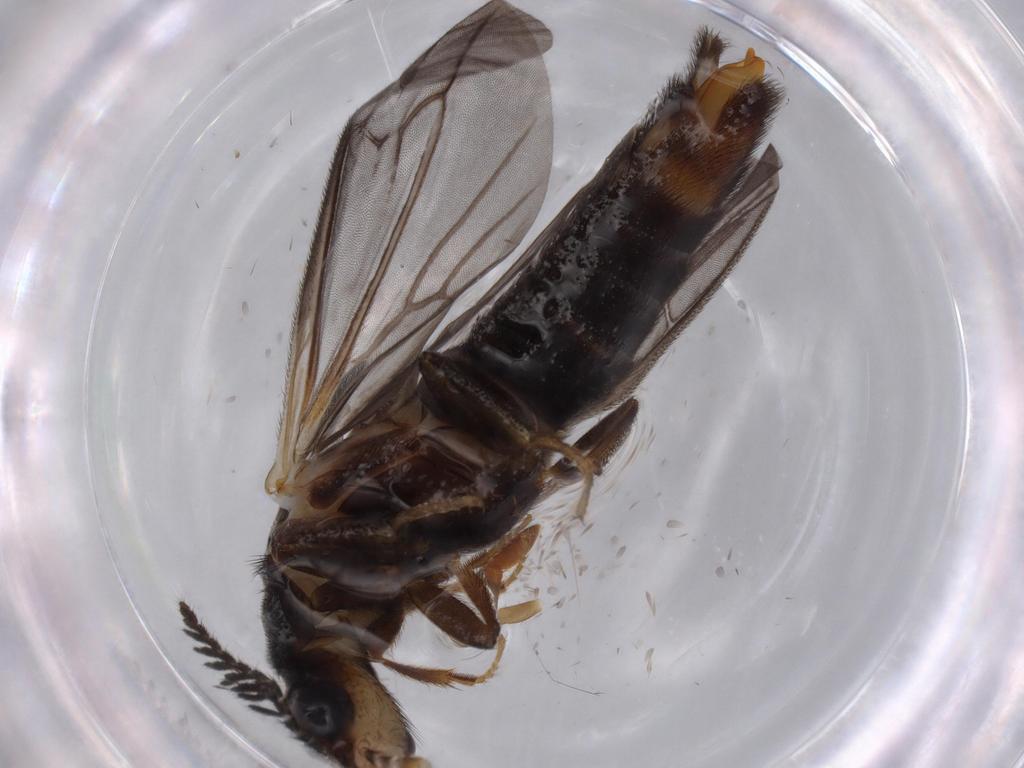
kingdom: Animalia
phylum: Arthropoda
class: Insecta
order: Coleoptera
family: Phengodidae
